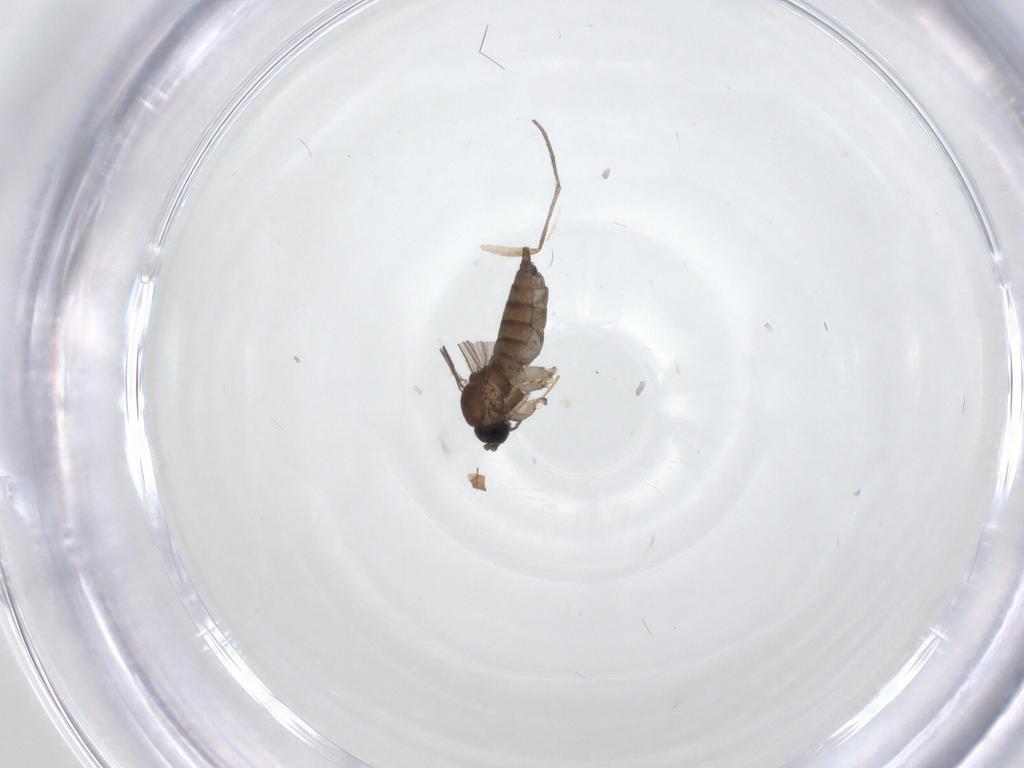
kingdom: Animalia
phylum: Arthropoda
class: Insecta
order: Diptera
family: Sciaridae
